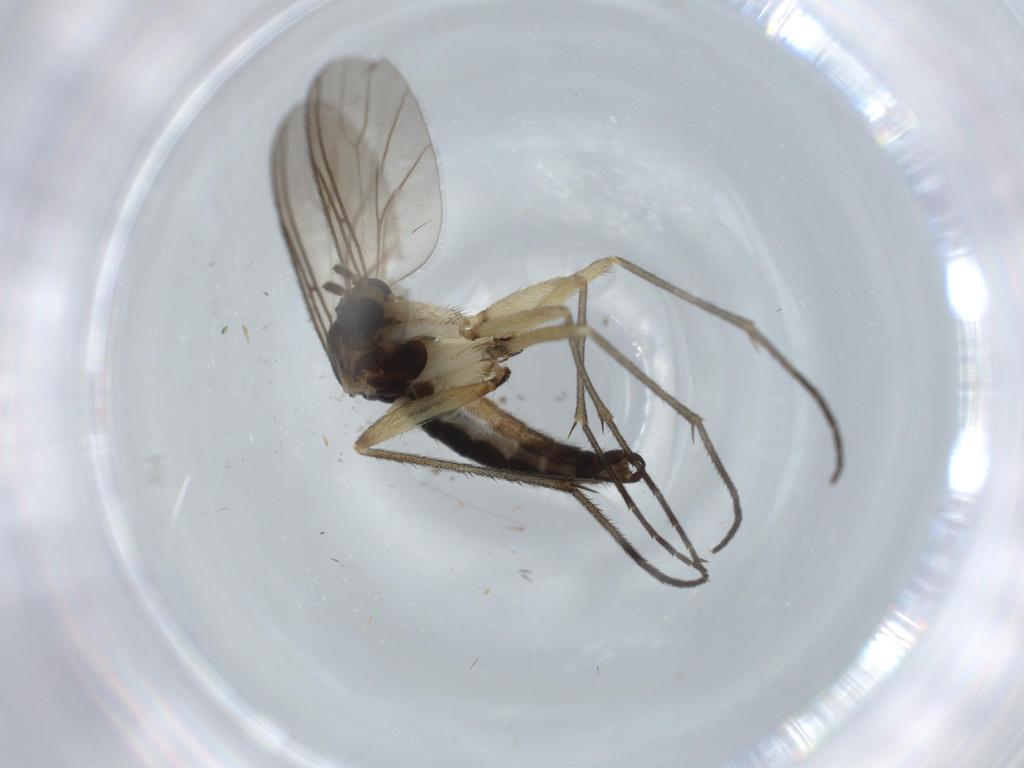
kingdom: Animalia
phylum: Arthropoda
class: Insecta
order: Diptera
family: Sciaridae
